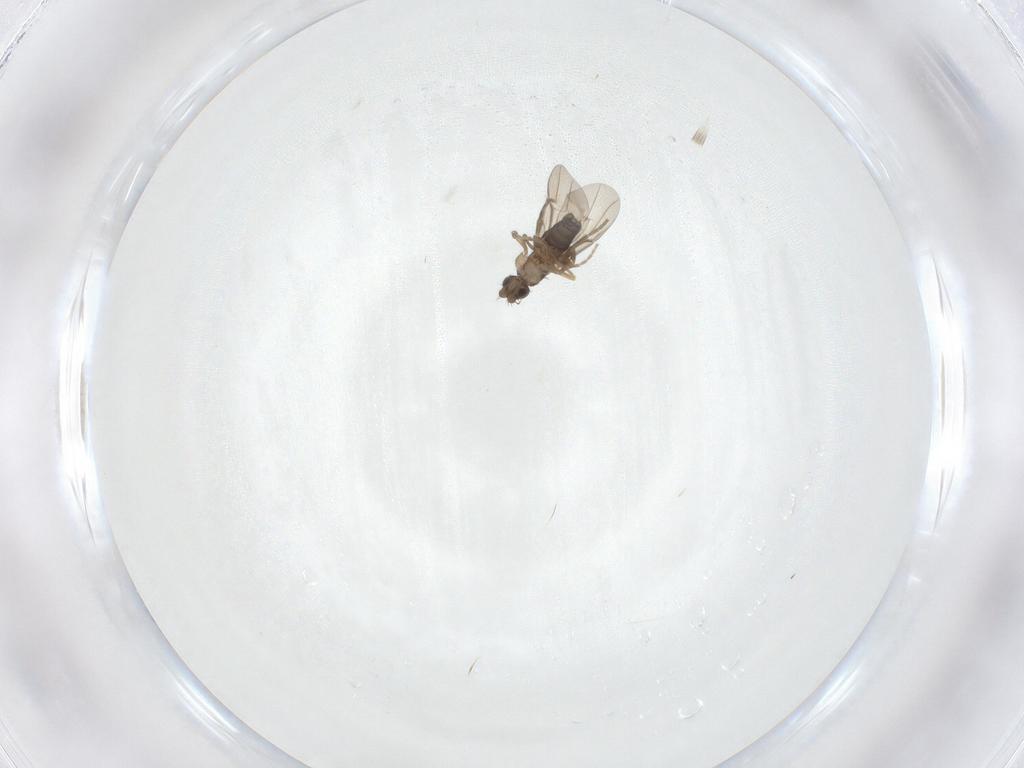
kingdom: Animalia
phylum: Arthropoda
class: Insecta
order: Diptera
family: Phoridae
